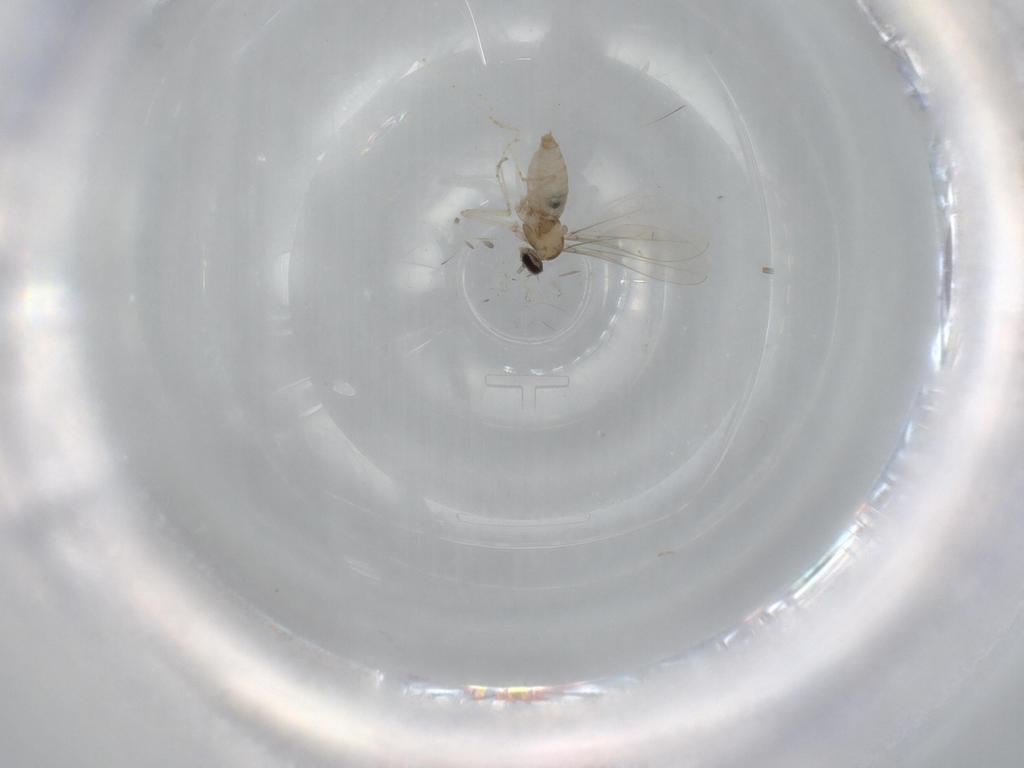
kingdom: Animalia
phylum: Arthropoda
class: Insecta
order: Diptera
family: Cecidomyiidae
